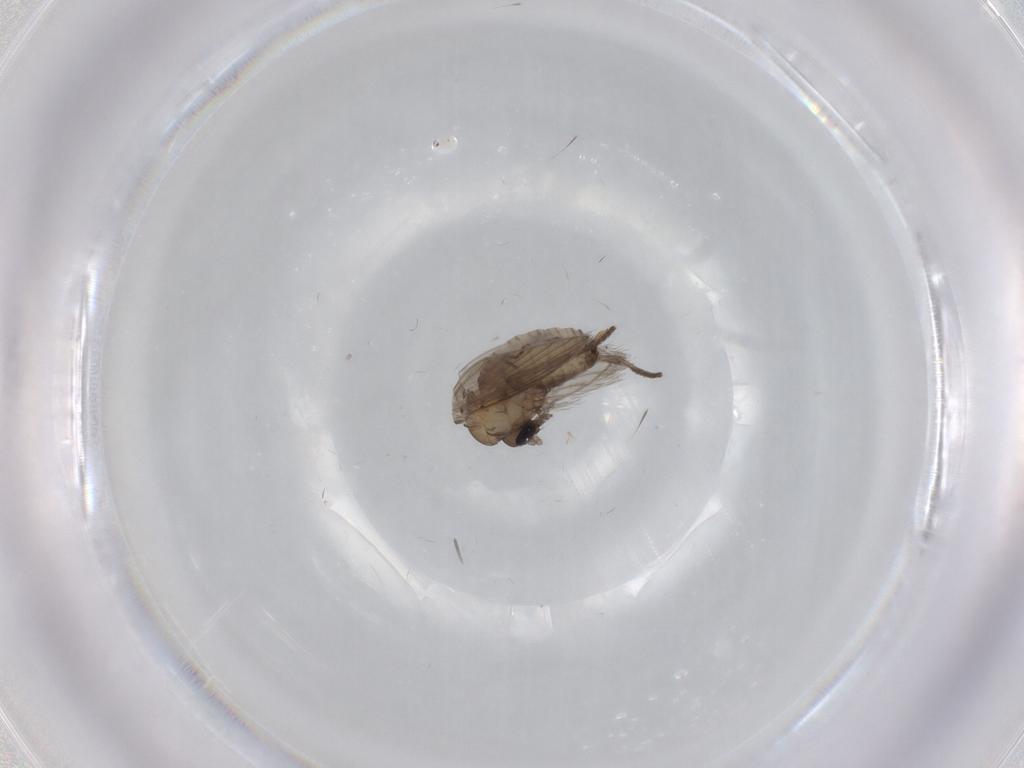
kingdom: Animalia
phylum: Arthropoda
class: Insecta
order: Diptera
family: Psychodidae
